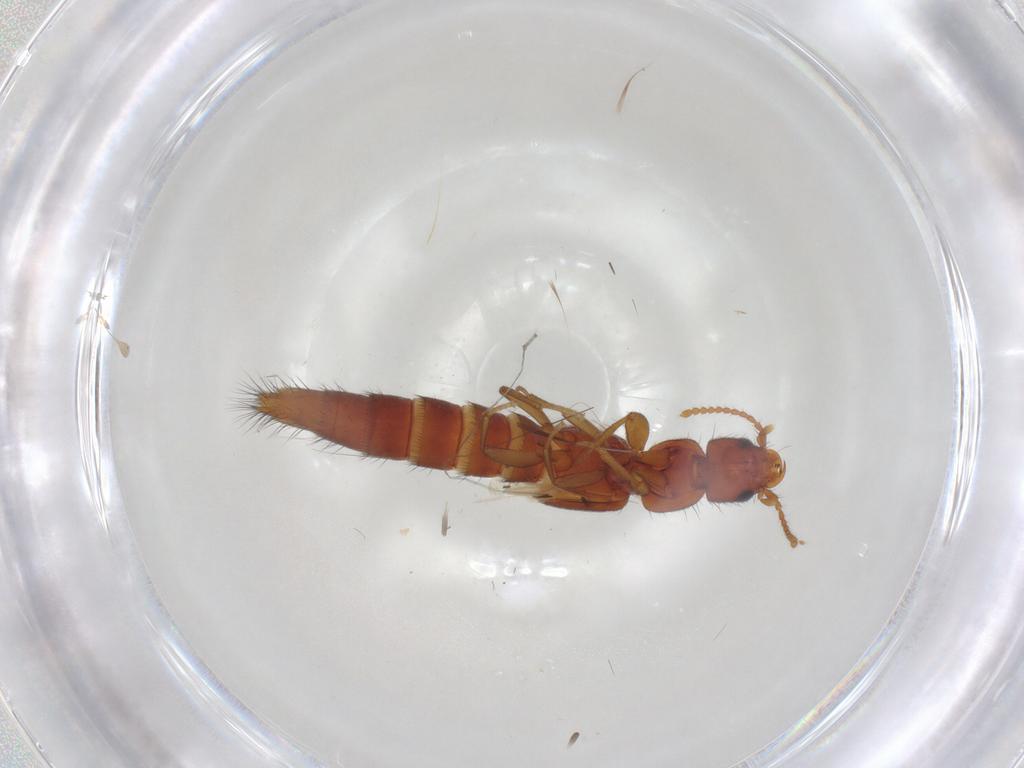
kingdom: Animalia
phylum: Arthropoda
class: Insecta
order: Coleoptera
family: Staphylinidae
